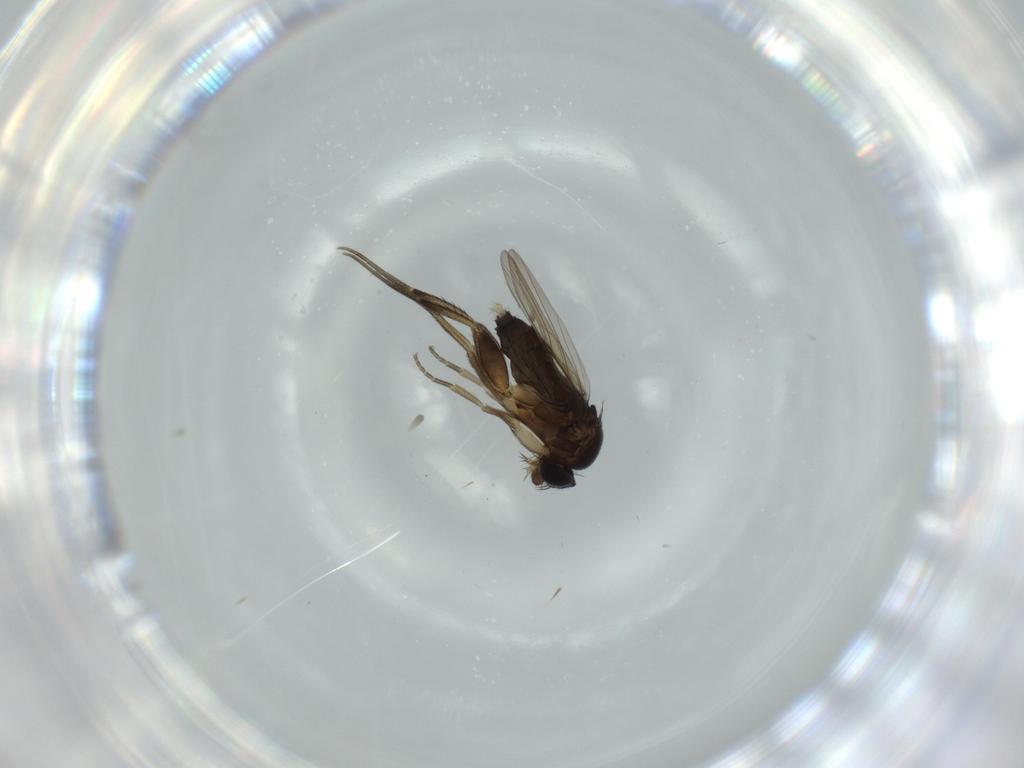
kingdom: Animalia
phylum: Arthropoda
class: Insecta
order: Diptera
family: Phoridae
